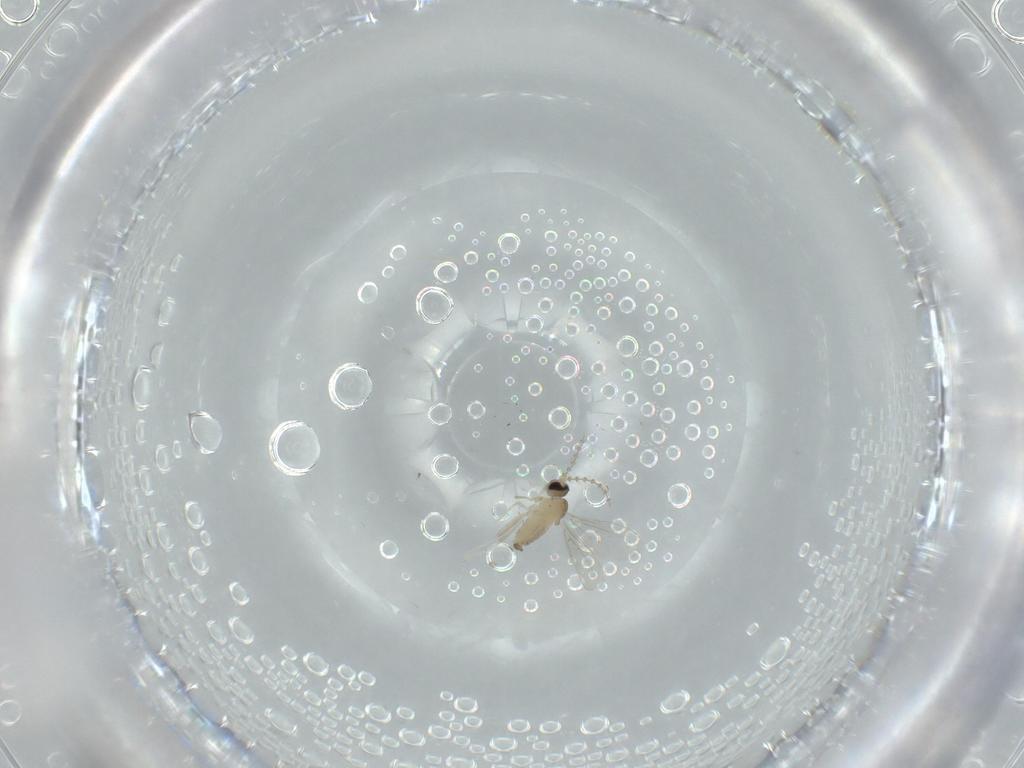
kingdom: Animalia
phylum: Arthropoda
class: Insecta
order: Diptera
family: Cecidomyiidae
